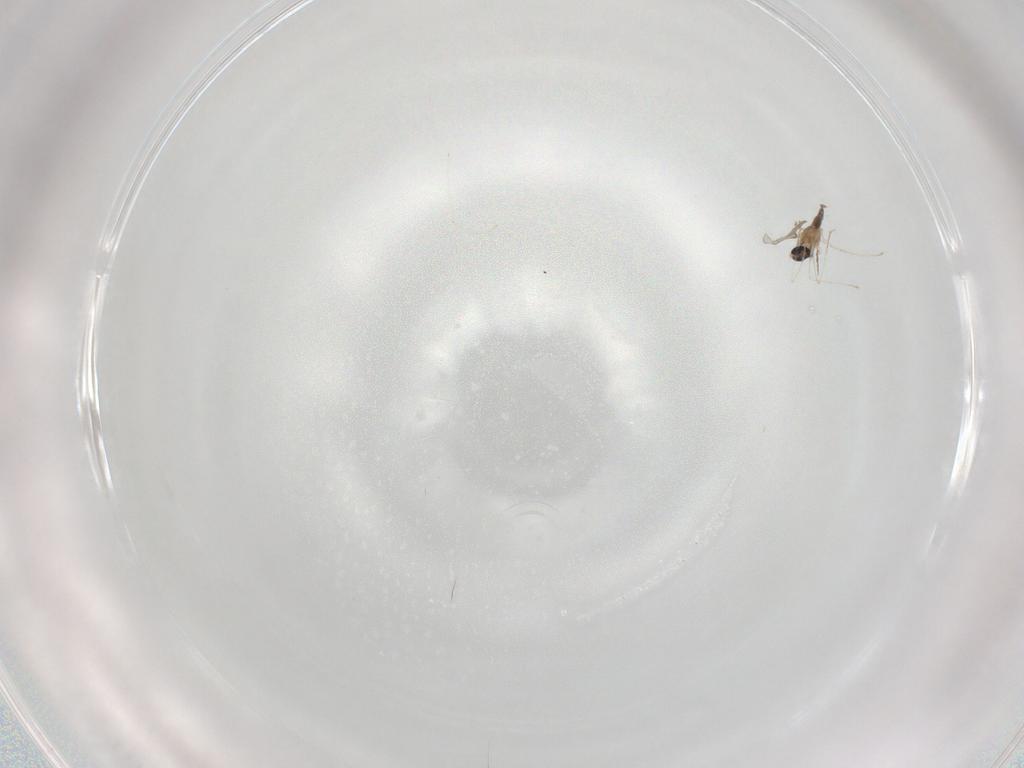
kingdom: Animalia
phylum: Arthropoda
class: Insecta
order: Diptera
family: Cecidomyiidae
